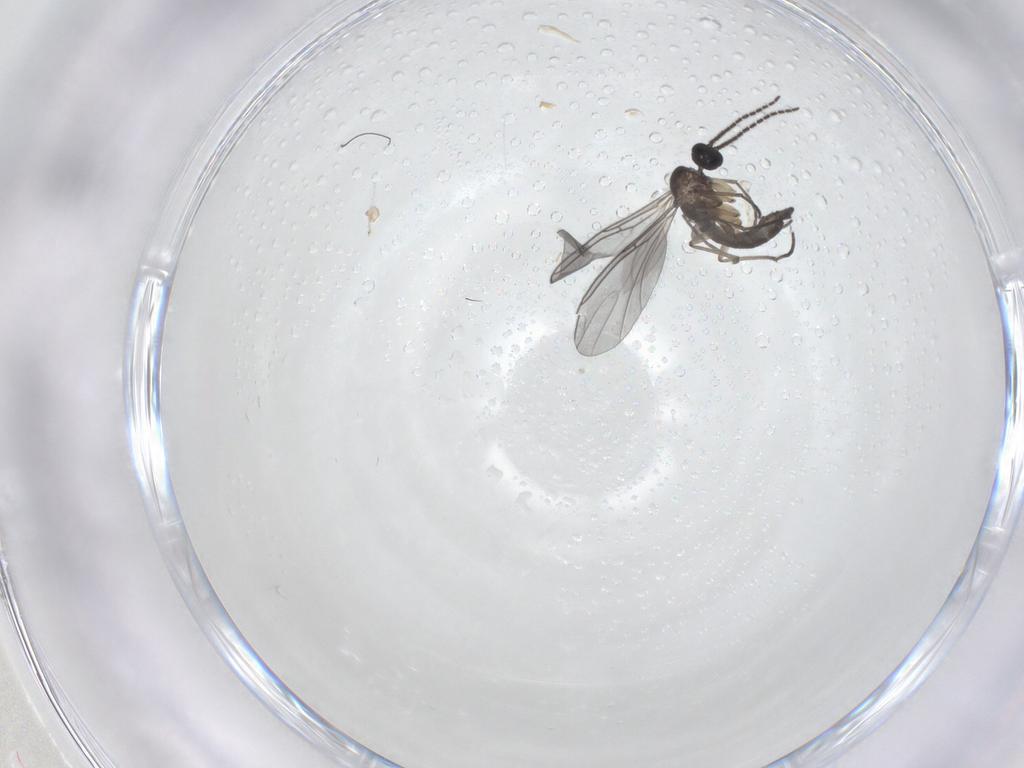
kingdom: Animalia
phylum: Arthropoda
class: Insecta
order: Diptera
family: Sciaridae
